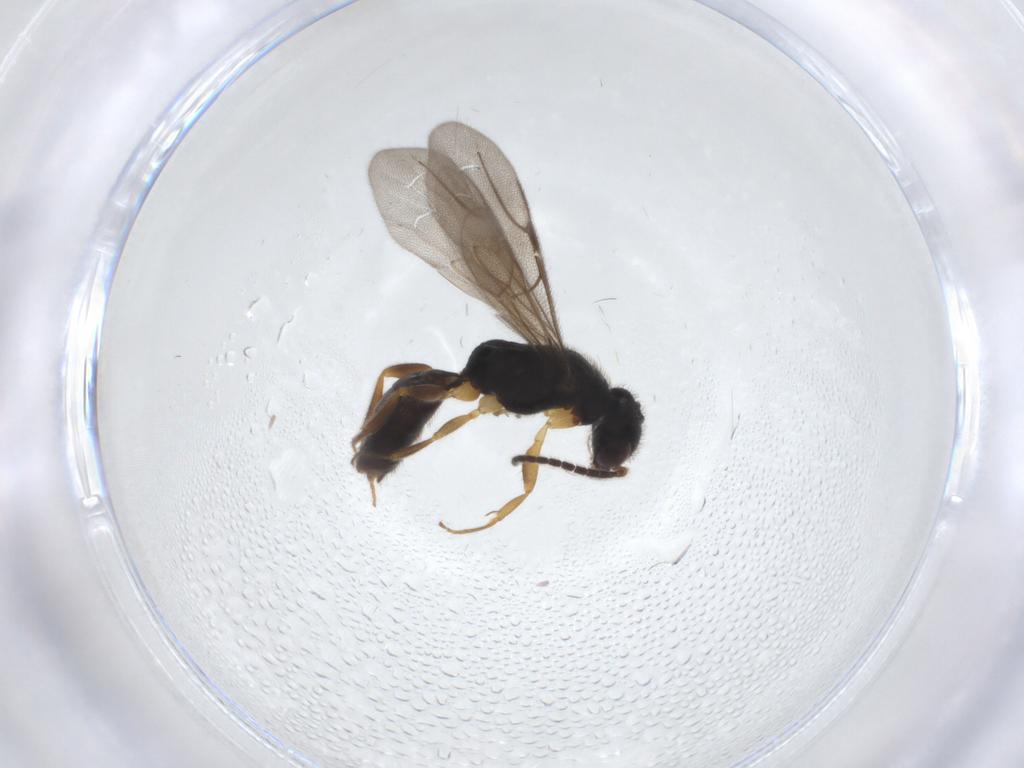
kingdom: Animalia
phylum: Arthropoda
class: Insecta
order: Hymenoptera
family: Bethylidae
